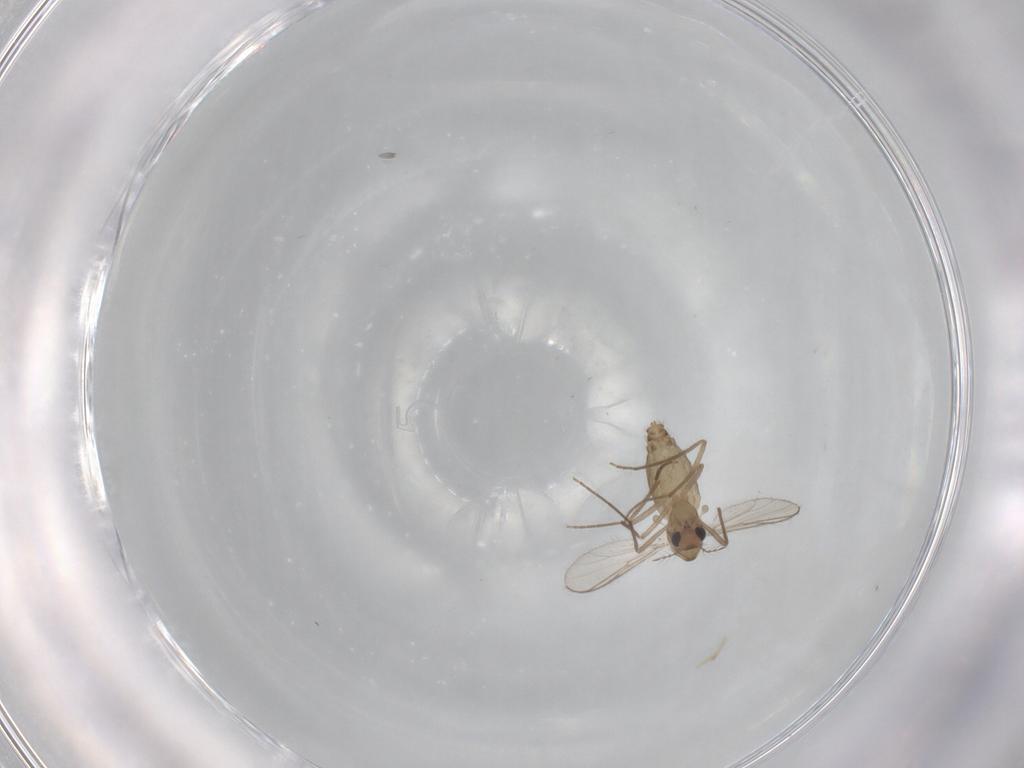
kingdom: Animalia
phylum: Arthropoda
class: Insecta
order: Diptera
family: Chironomidae
